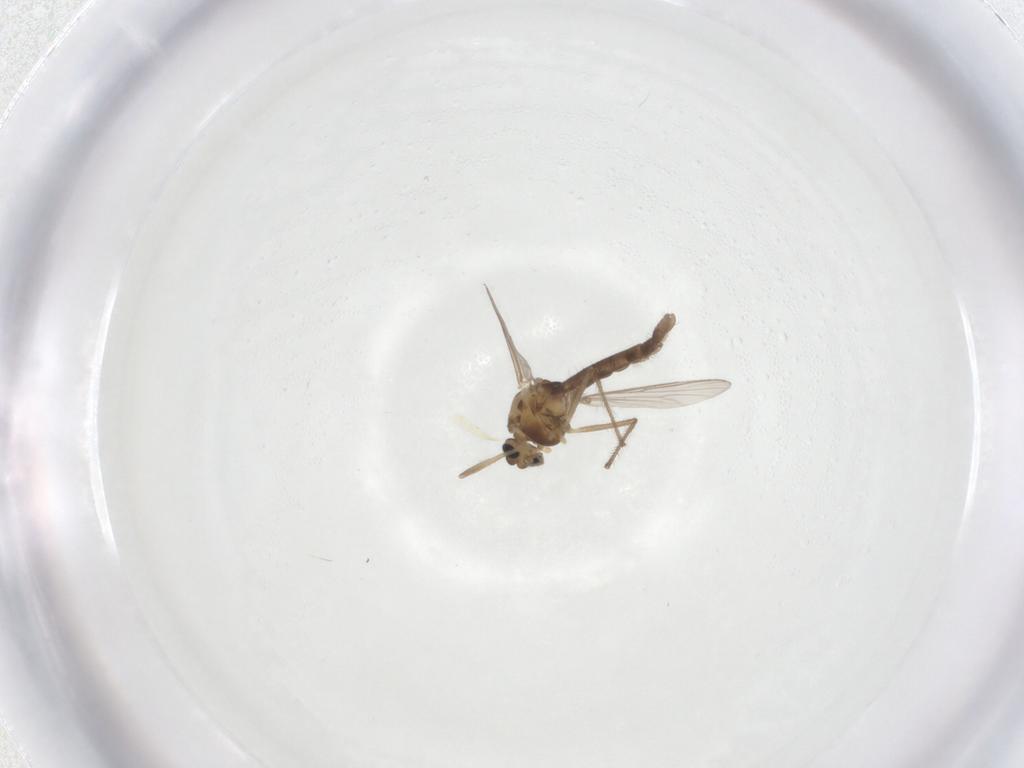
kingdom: Animalia
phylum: Arthropoda
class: Insecta
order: Diptera
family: Chironomidae
